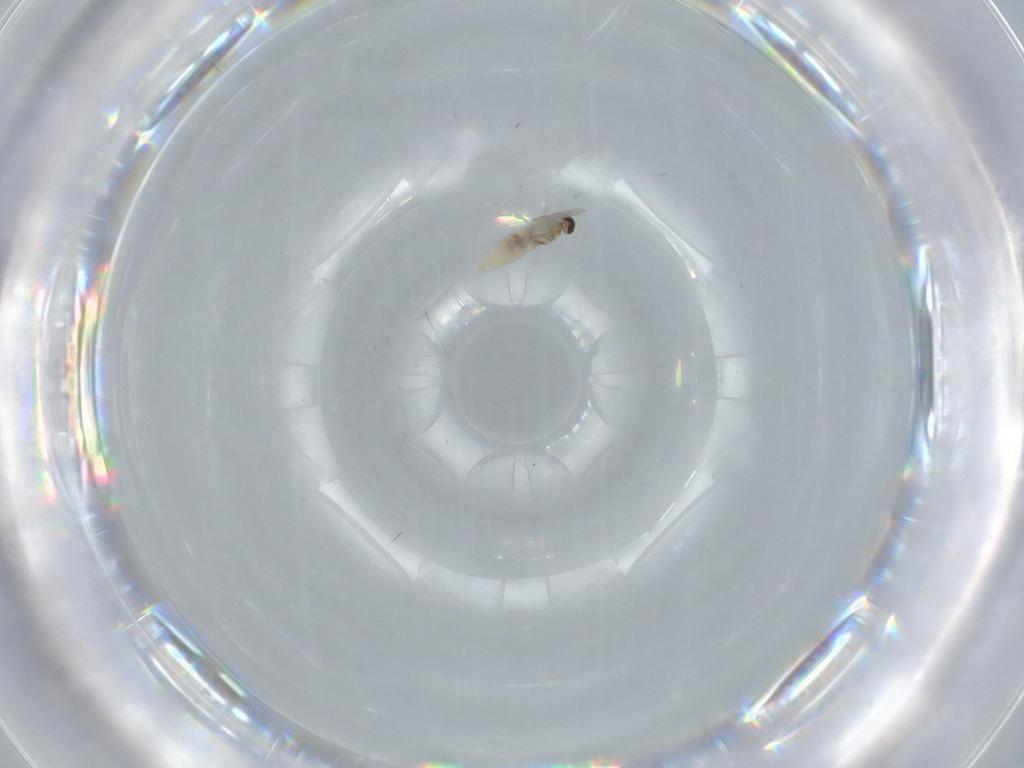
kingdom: Animalia
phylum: Arthropoda
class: Insecta
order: Diptera
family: Cecidomyiidae
